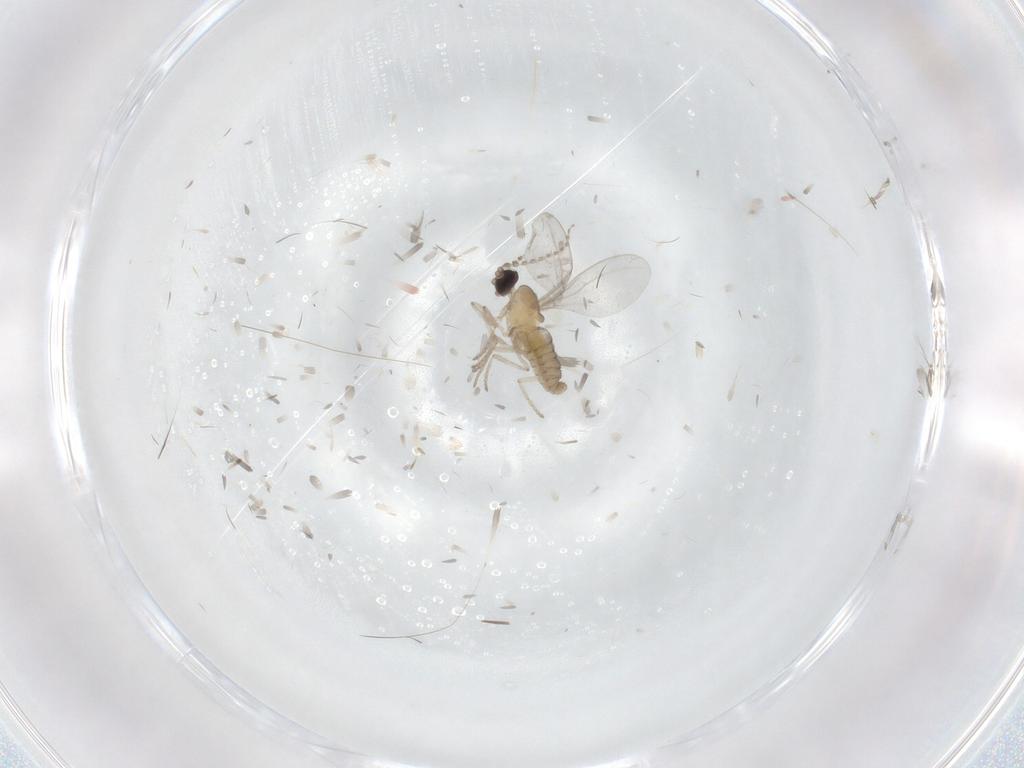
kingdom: Animalia
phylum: Arthropoda
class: Insecta
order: Diptera
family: Cecidomyiidae
